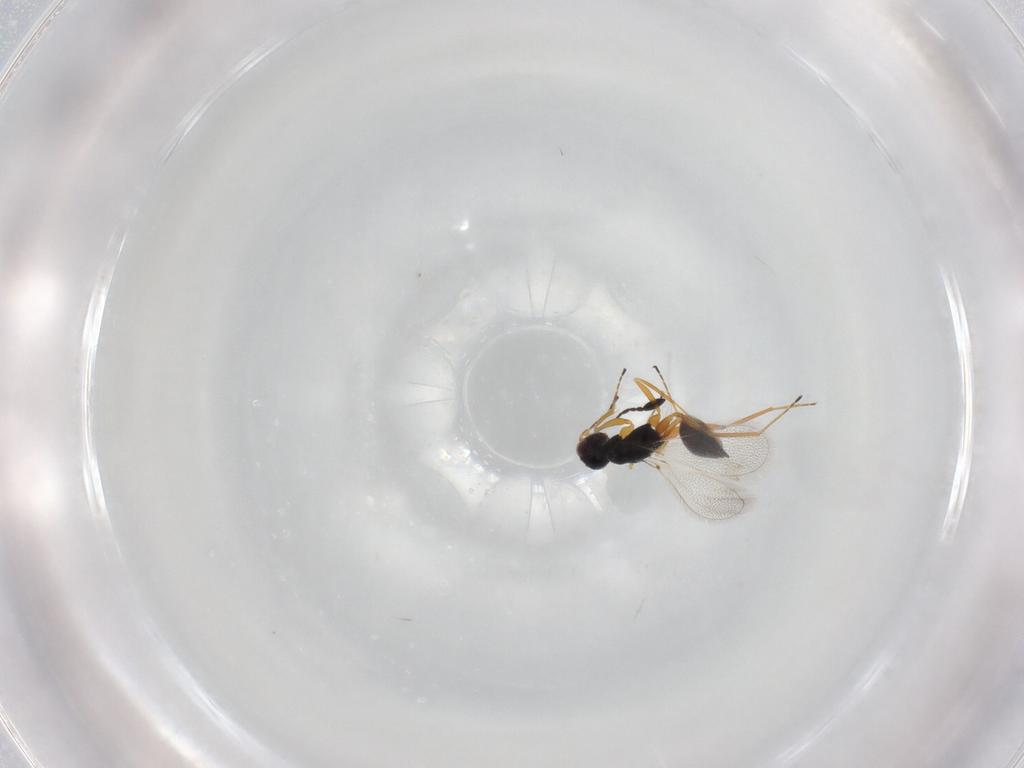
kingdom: Animalia
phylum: Arthropoda
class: Insecta
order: Hymenoptera
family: Mymaridae
